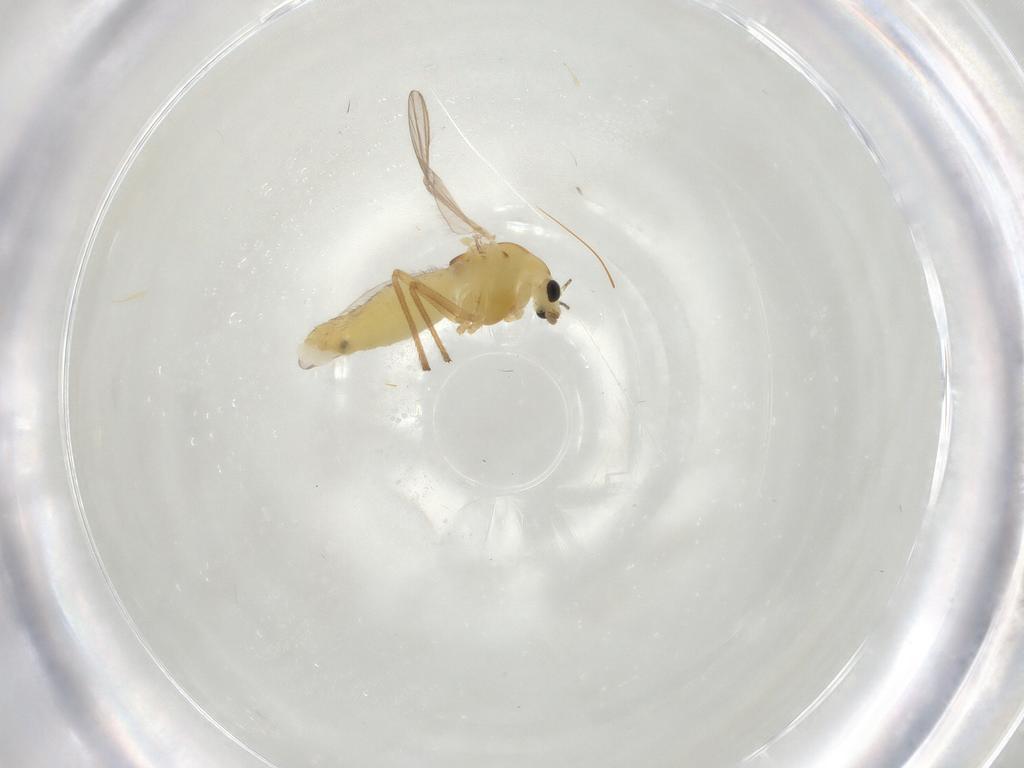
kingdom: Animalia
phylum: Arthropoda
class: Insecta
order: Diptera
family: Chironomidae
